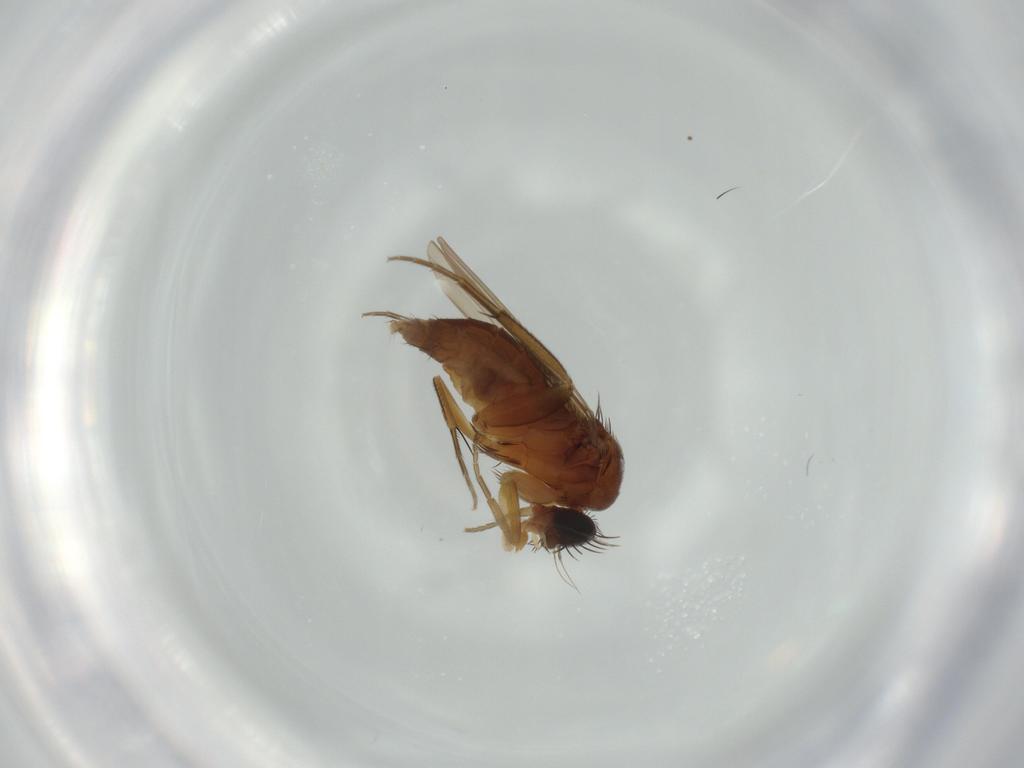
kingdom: Animalia
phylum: Arthropoda
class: Insecta
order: Diptera
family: Phoridae
